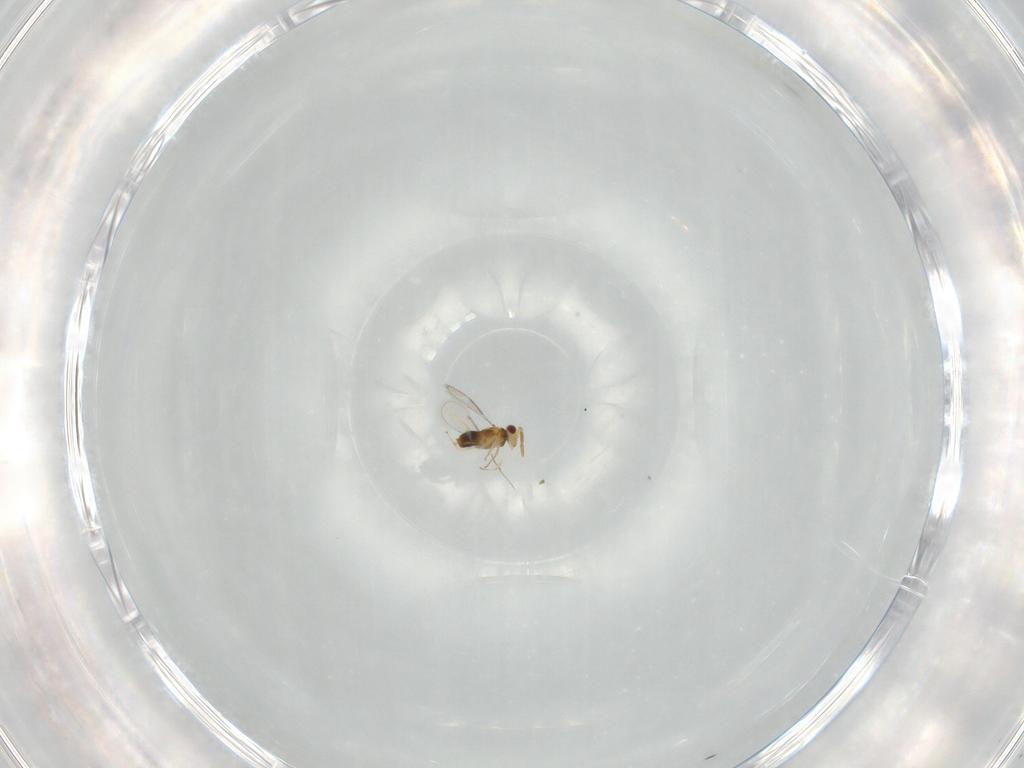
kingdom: Animalia
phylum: Arthropoda
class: Insecta
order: Hymenoptera
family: Aphelinidae
